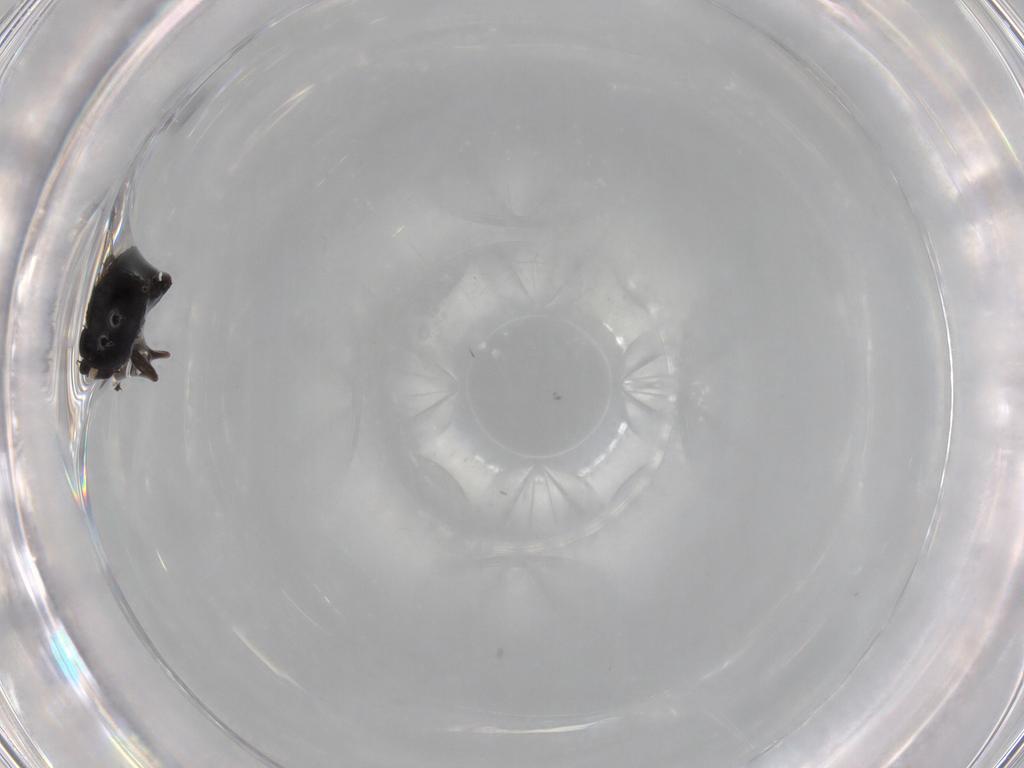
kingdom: Animalia
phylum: Arthropoda
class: Insecta
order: Diptera
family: Phoridae
